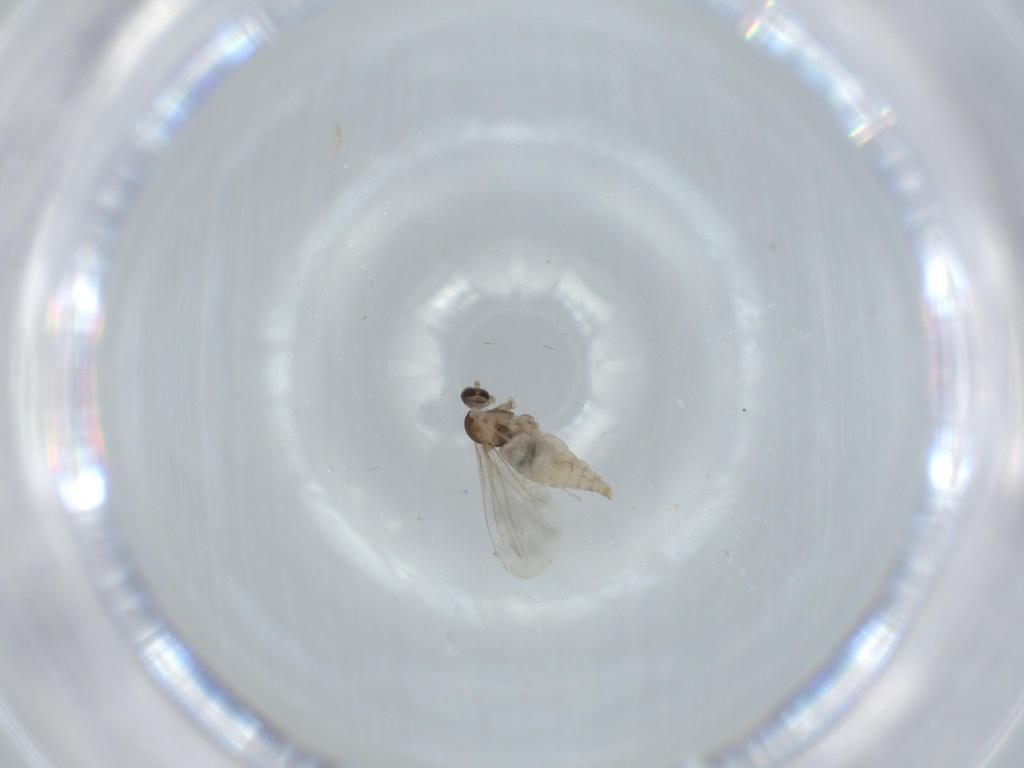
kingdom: Animalia
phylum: Arthropoda
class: Insecta
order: Diptera
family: Cecidomyiidae
